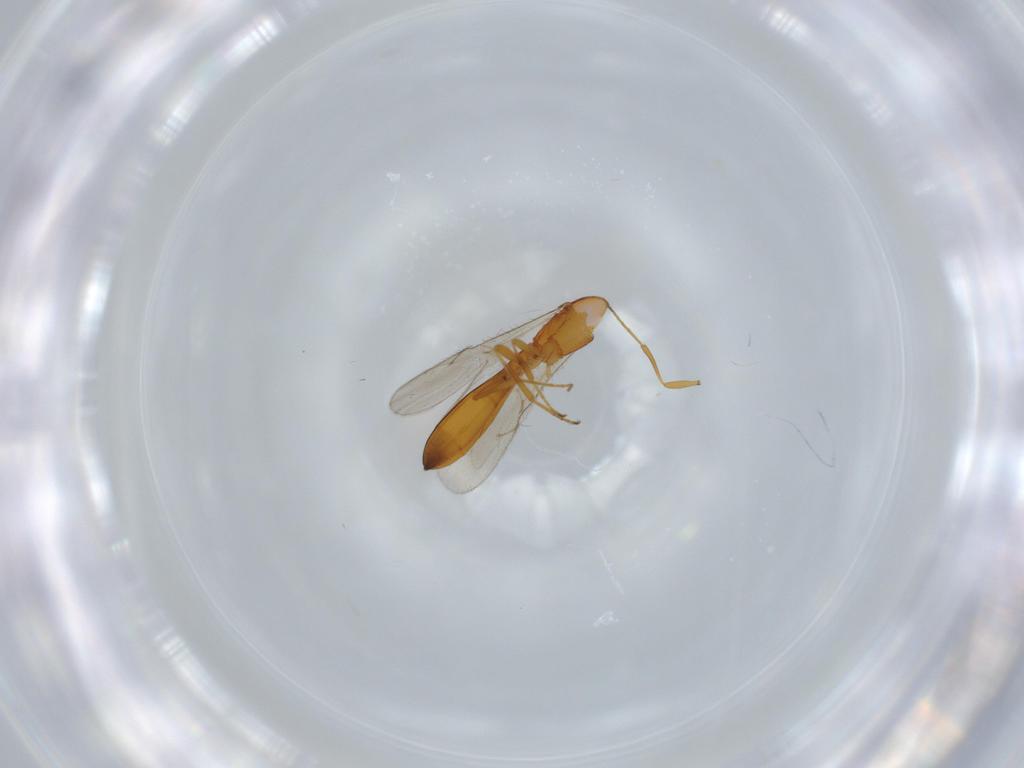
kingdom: Animalia
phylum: Arthropoda
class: Insecta
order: Hymenoptera
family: Scelionidae
